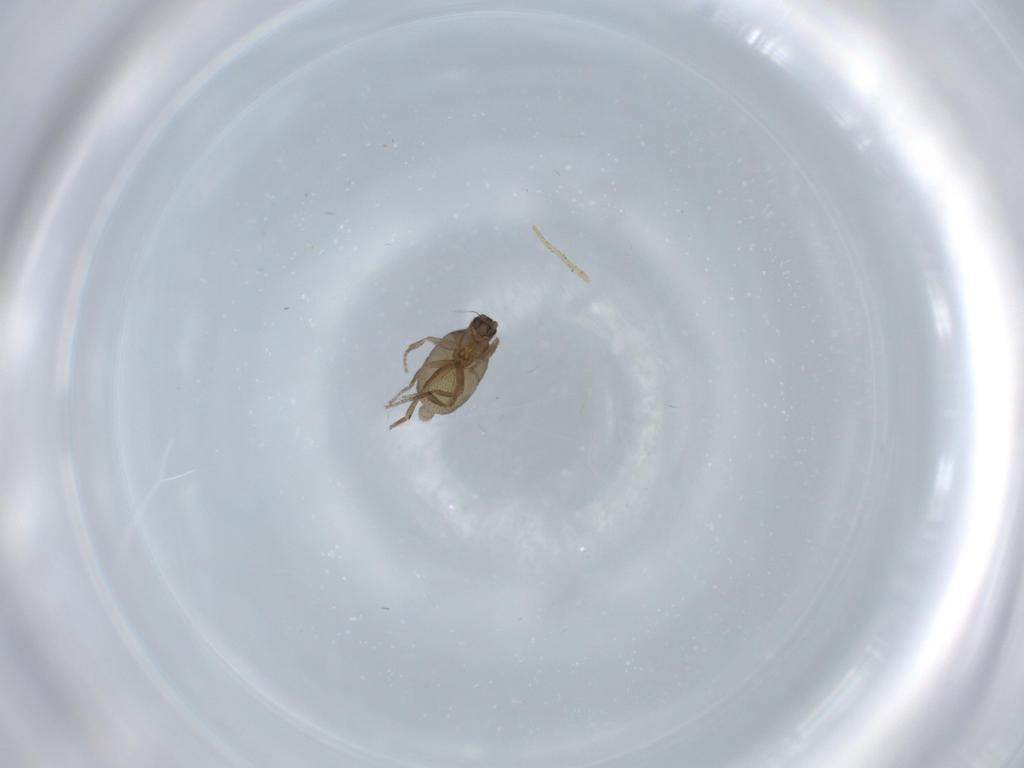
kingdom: Animalia
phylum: Arthropoda
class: Insecta
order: Diptera
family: Phoridae
